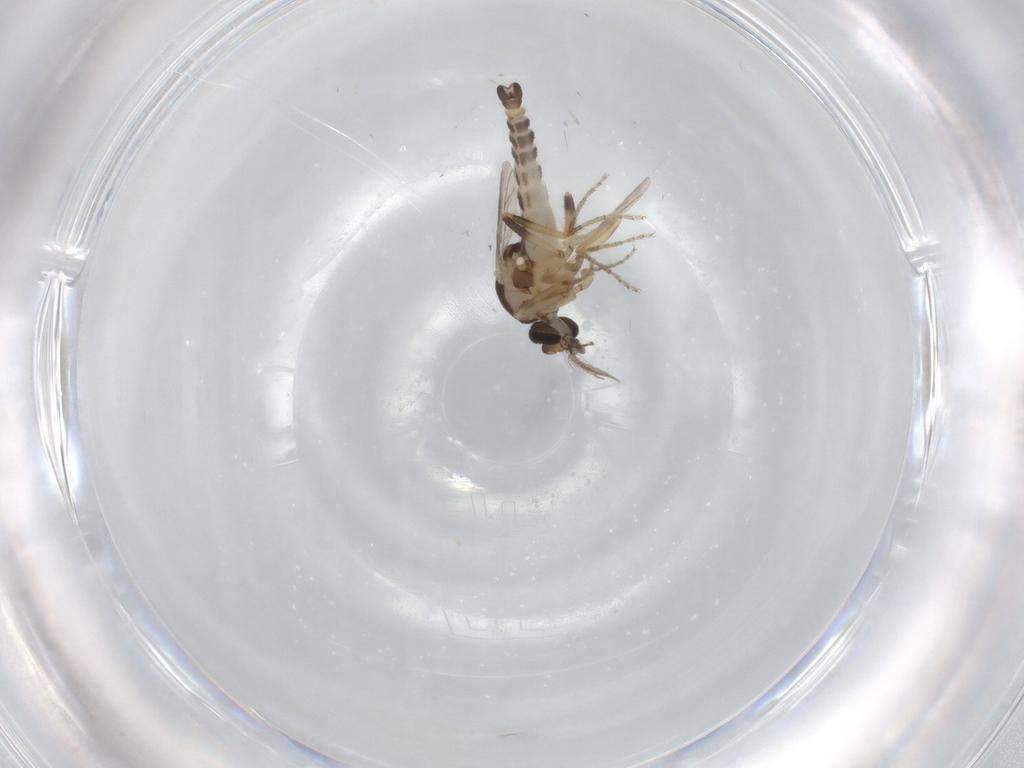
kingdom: Animalia
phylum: Arthropoda
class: Insecta
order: Diptera
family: Ceratopogonidae
